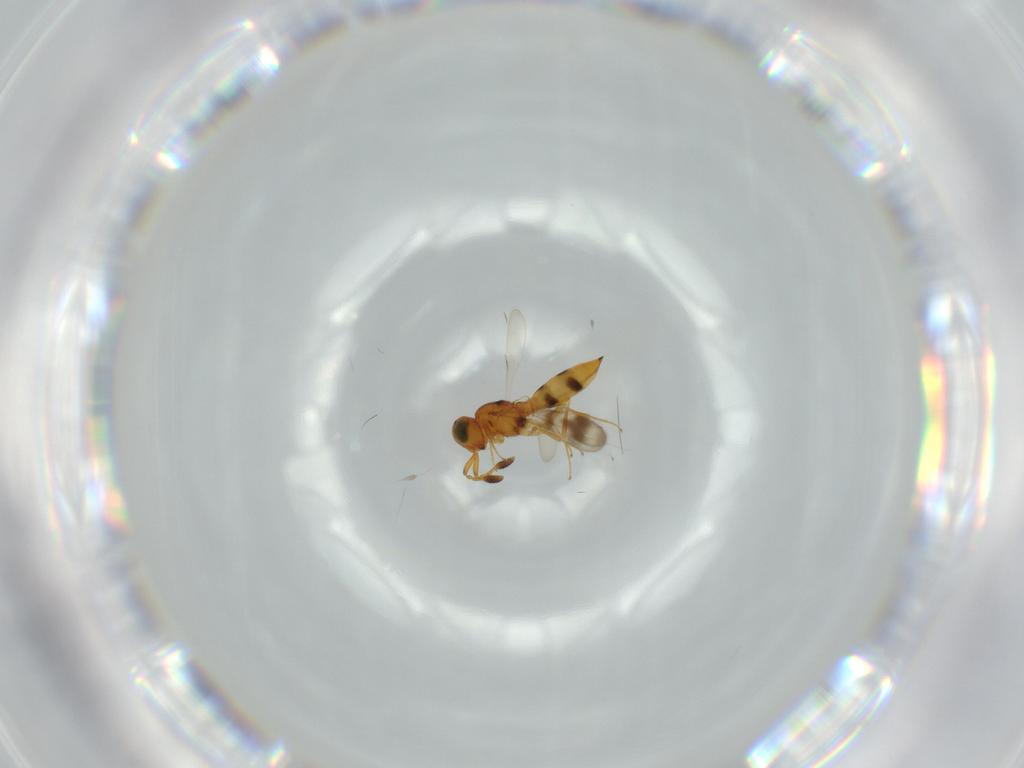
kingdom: Animalia
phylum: Arthropoda
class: Insecta
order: Hymenoptera
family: Scelionidae
